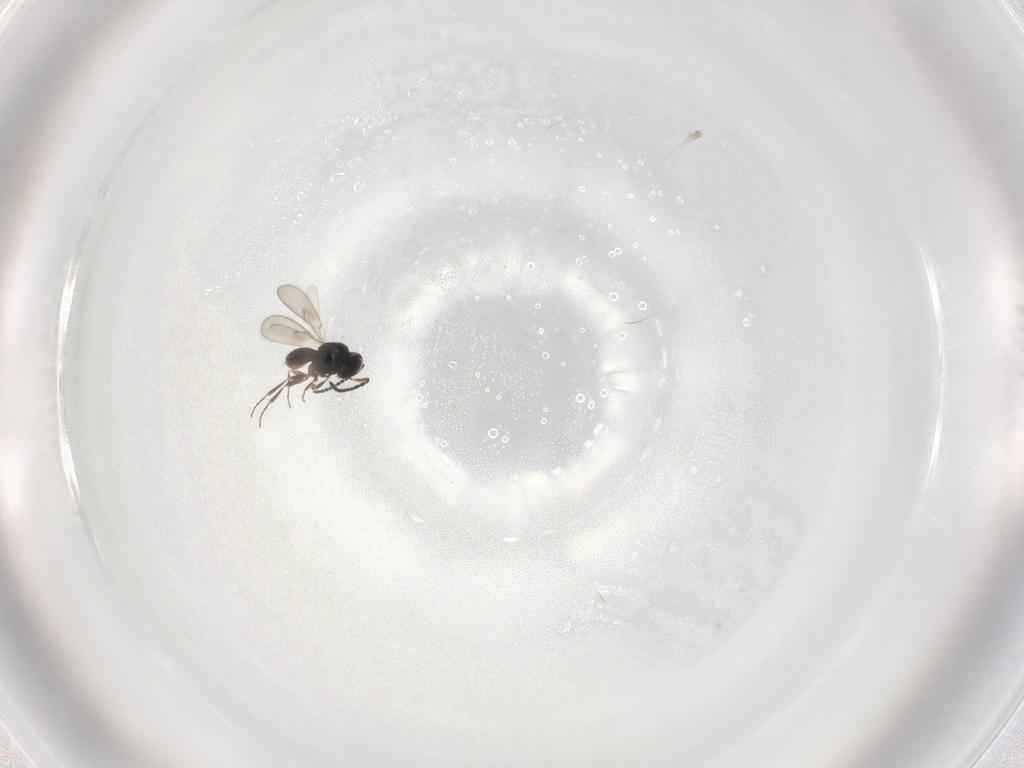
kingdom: Animalia
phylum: Arthropoda
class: Insecta
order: Hymenoptera
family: Scelionidae
